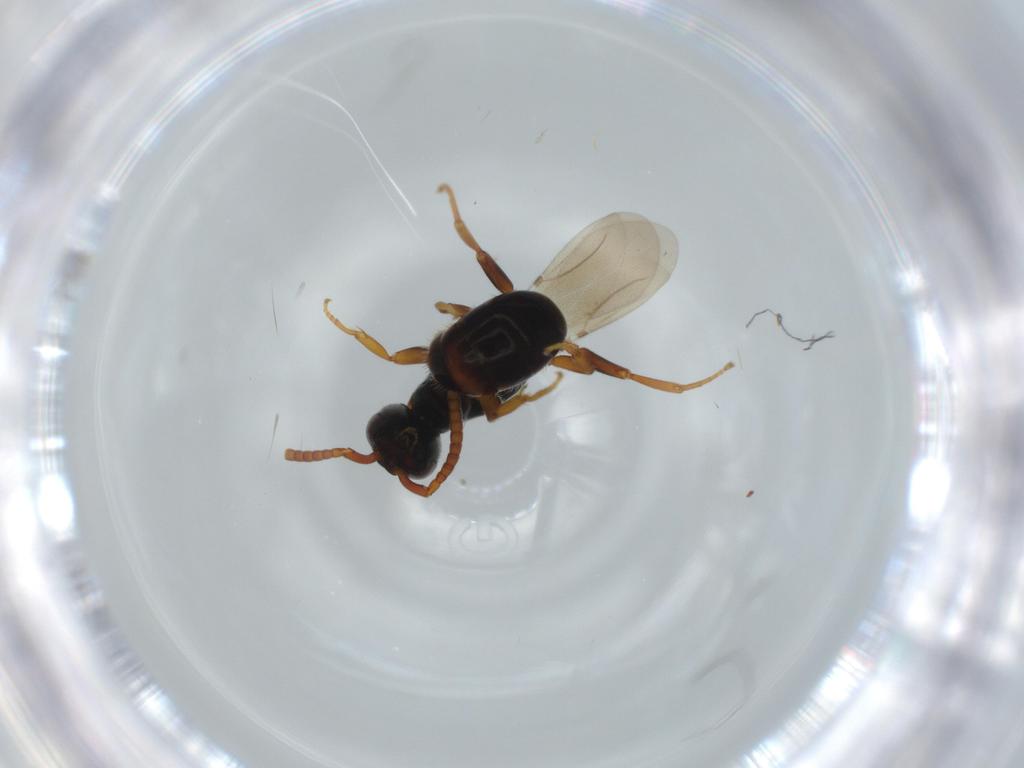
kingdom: Animalia
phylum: Arthropoda
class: Insecta
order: Hymenoptera
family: Bethylidae
